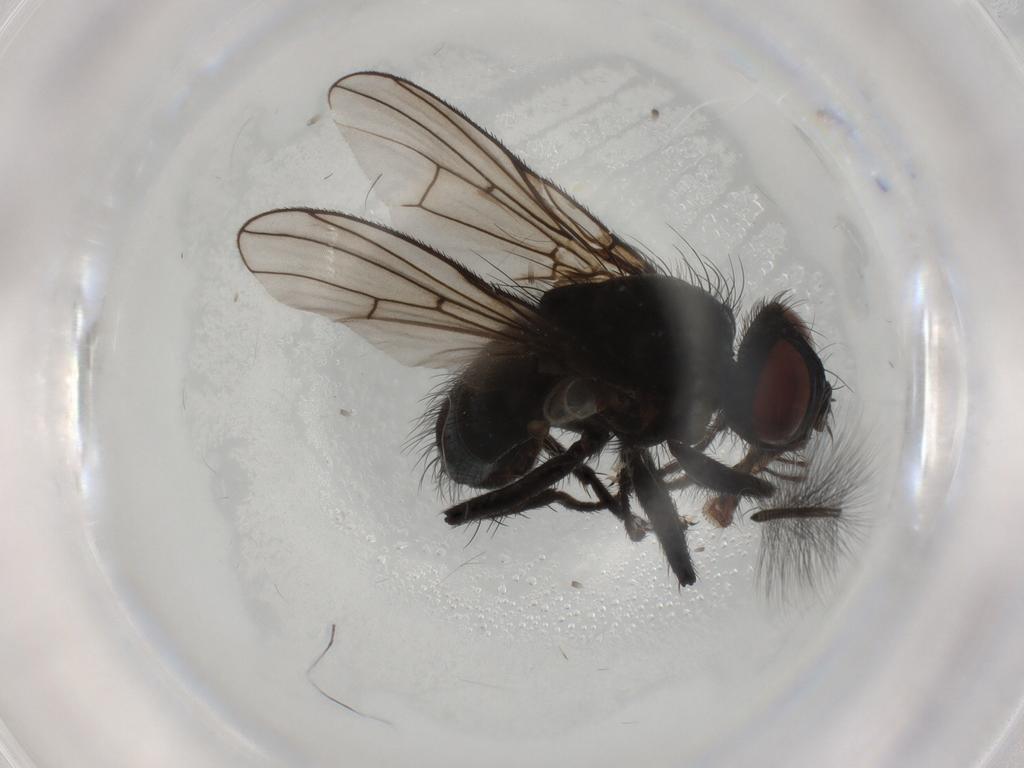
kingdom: Animalia
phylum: Arthropoda
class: Insecta
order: Diptera
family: Muscidae
